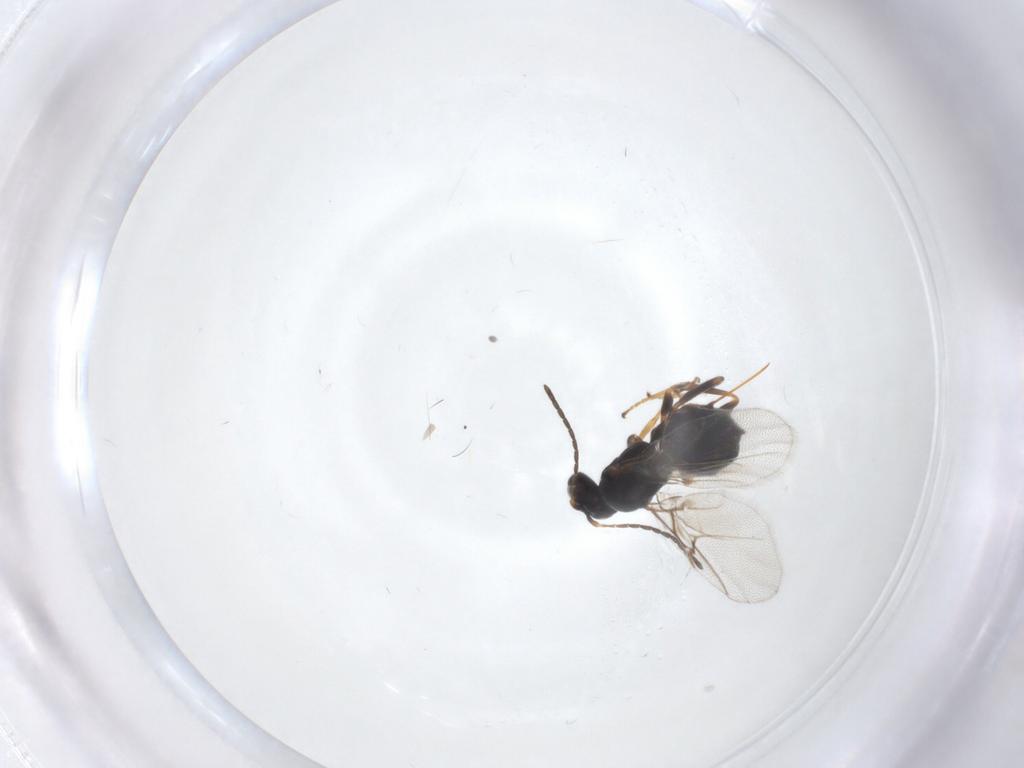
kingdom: Animalia
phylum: Arthropoda
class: Insecta
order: Hymenoptera
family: Cynipidae
